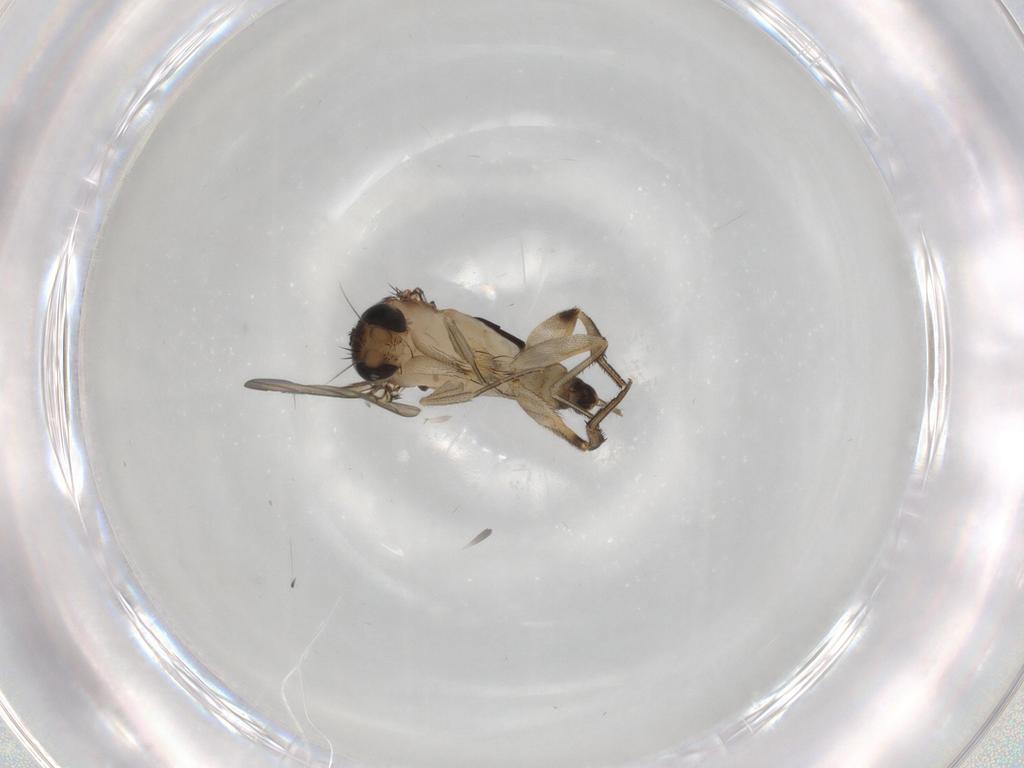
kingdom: Animalia
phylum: Arthropoda
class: Insecta
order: Diptera
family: Phoridae
